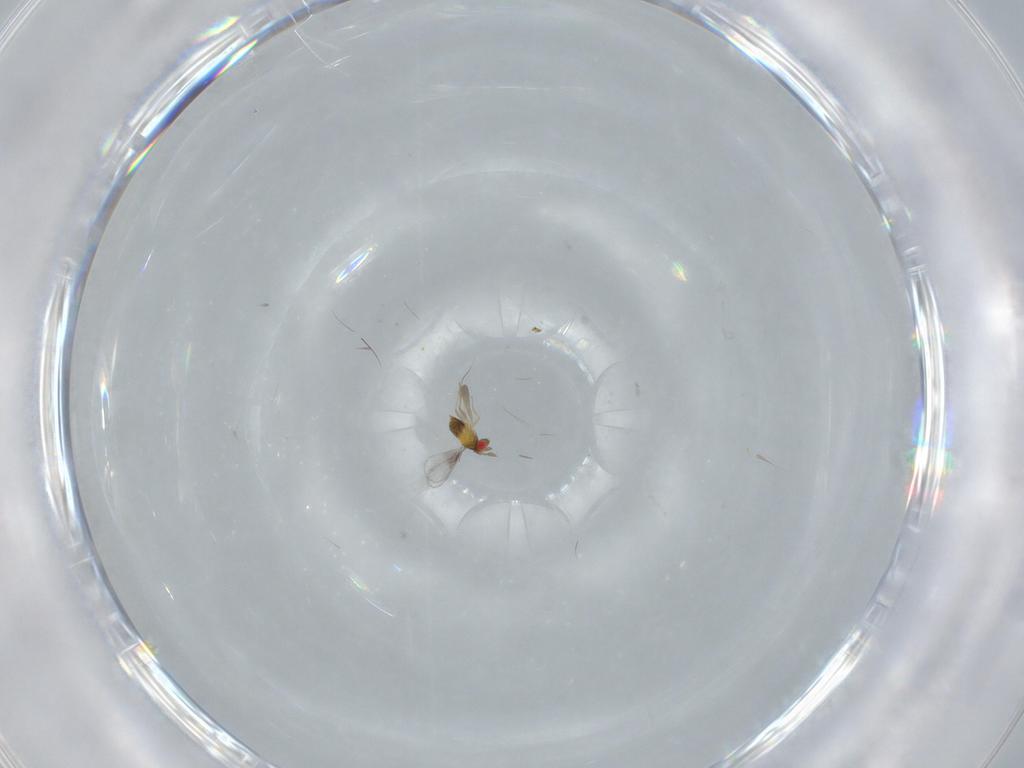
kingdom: Animalia
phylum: Arthropoda
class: Insecta
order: Hymenoptera
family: Trichogrammatidae
